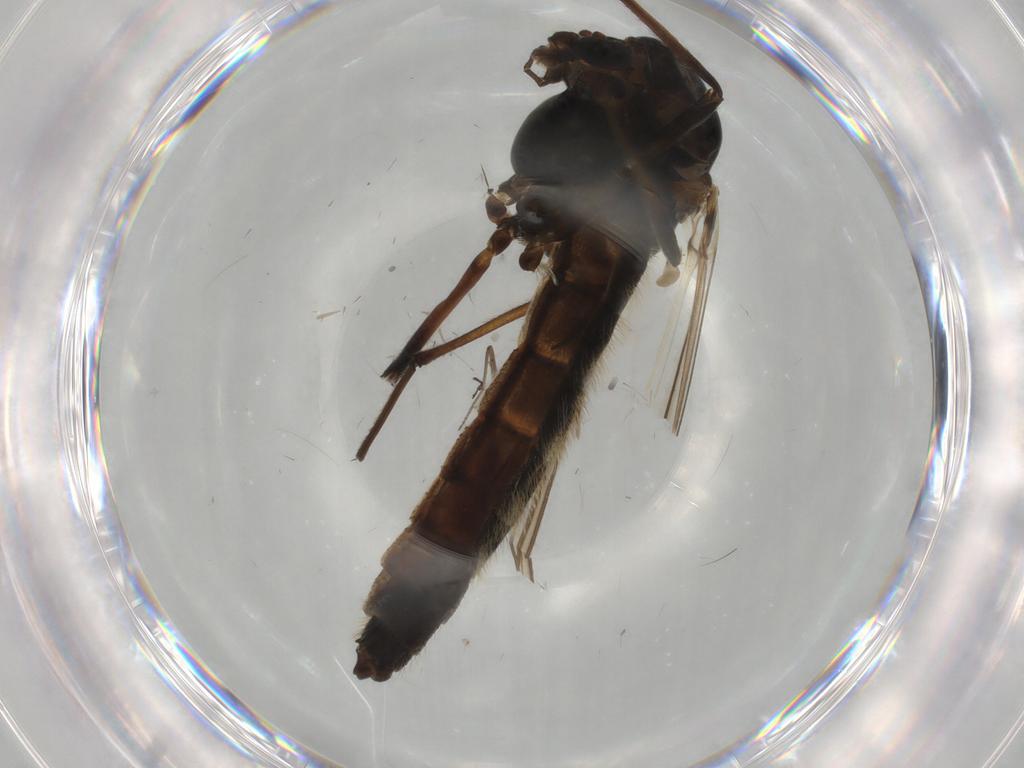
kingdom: Animalia
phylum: Arthropoda
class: Insecta
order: Diptera
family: Chironomidae
